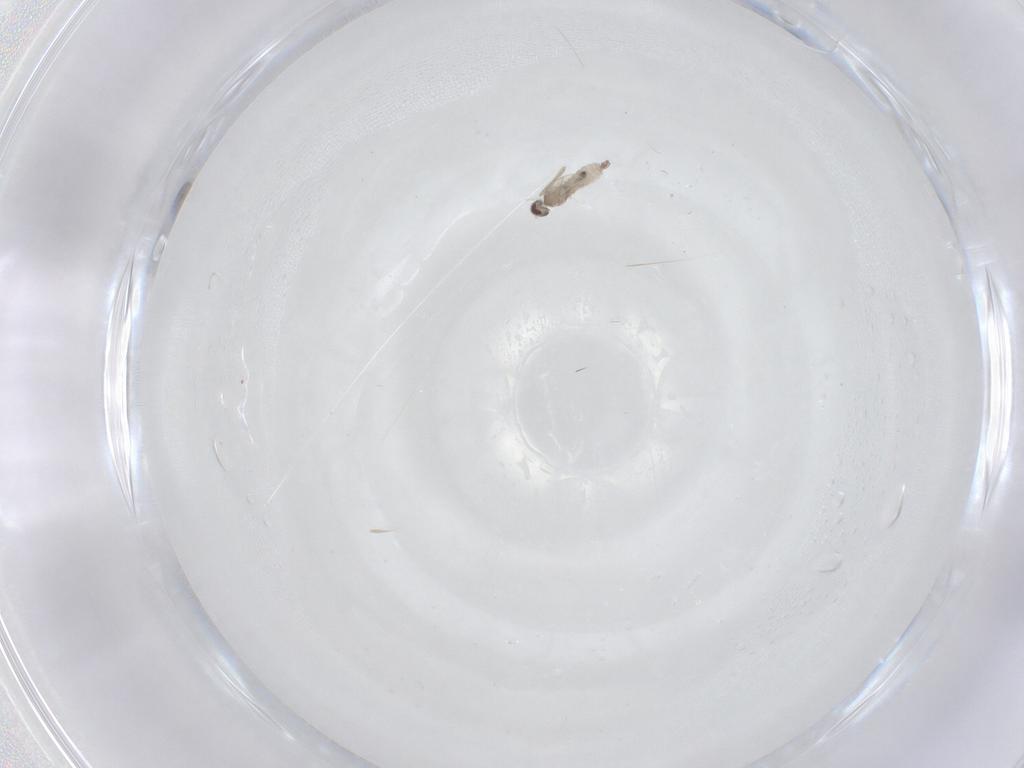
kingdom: Animalia
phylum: Arthropoda
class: Insecta
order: Diptera
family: Cecidomyiidae
